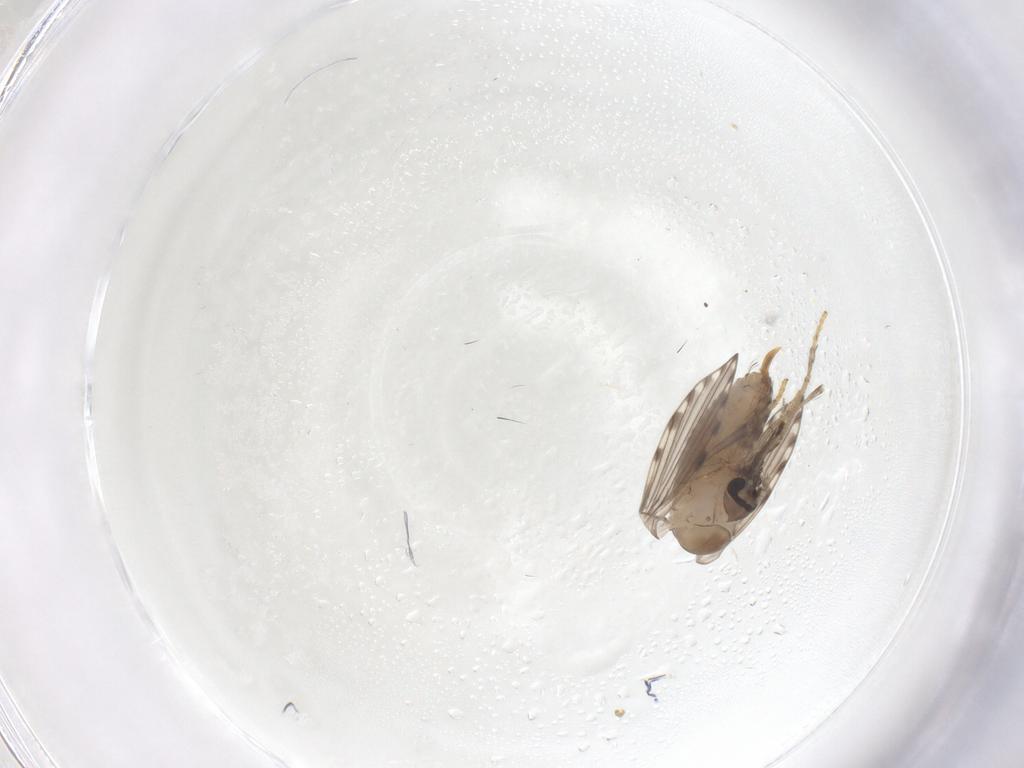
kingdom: Animalia
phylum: Arthropoda
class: Insecta
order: Diptera
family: Psychodidae
